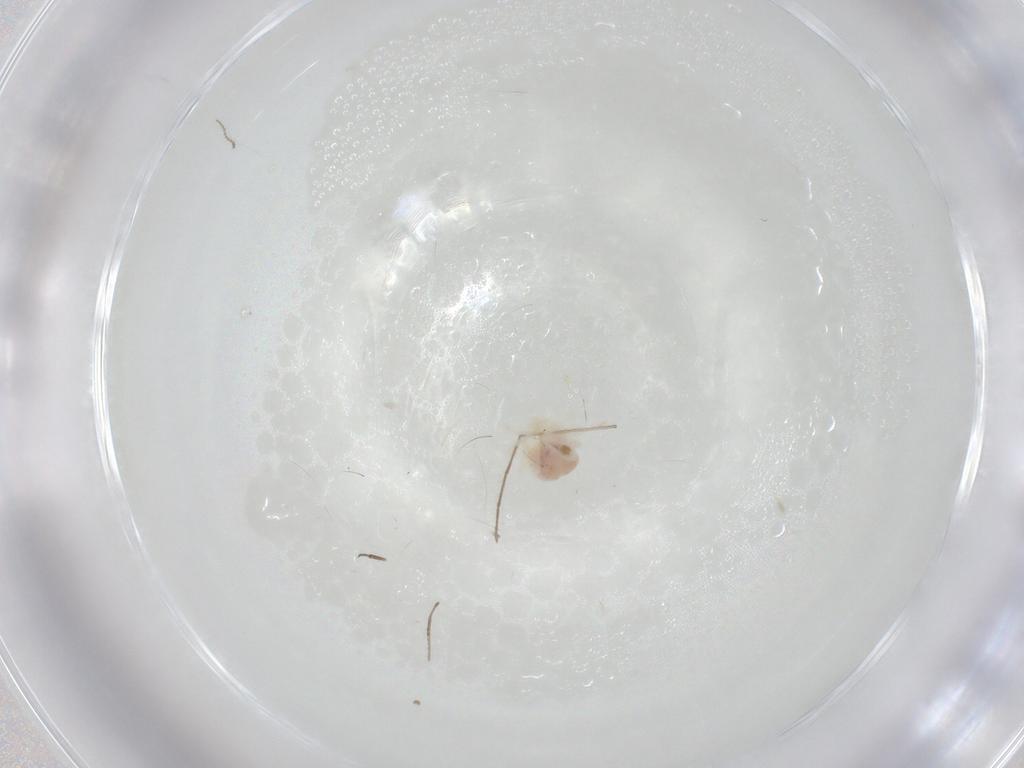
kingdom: Animalia
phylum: Arthropoda
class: Arachnida
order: Trombidiformes
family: Anystidae
